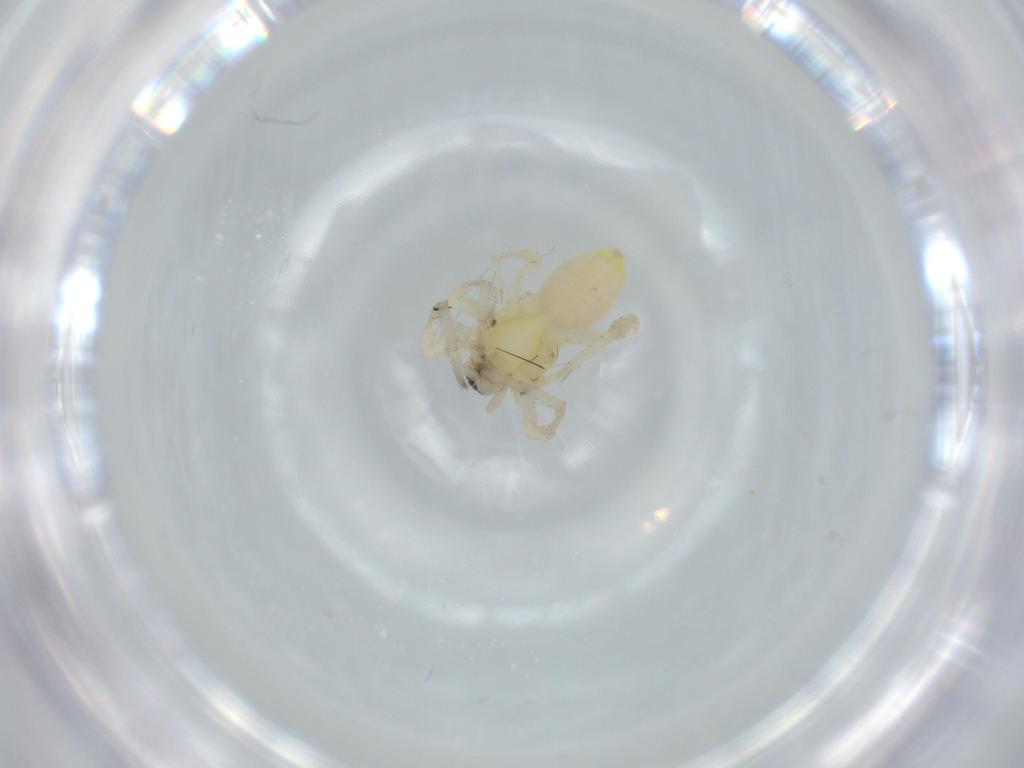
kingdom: Animalia
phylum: Arthropoda
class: Arachnida
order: Araneae
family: Anyphaenidae
